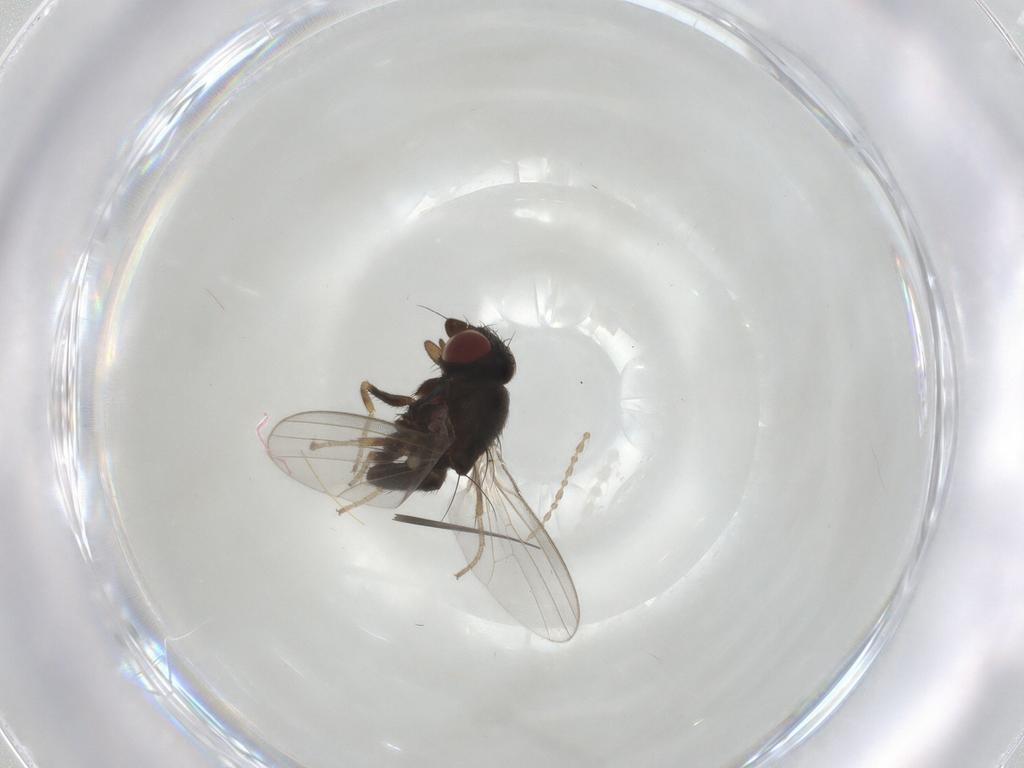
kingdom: Animalia
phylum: Arthropoda
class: Insecta
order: Diptera
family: Milichiidae
